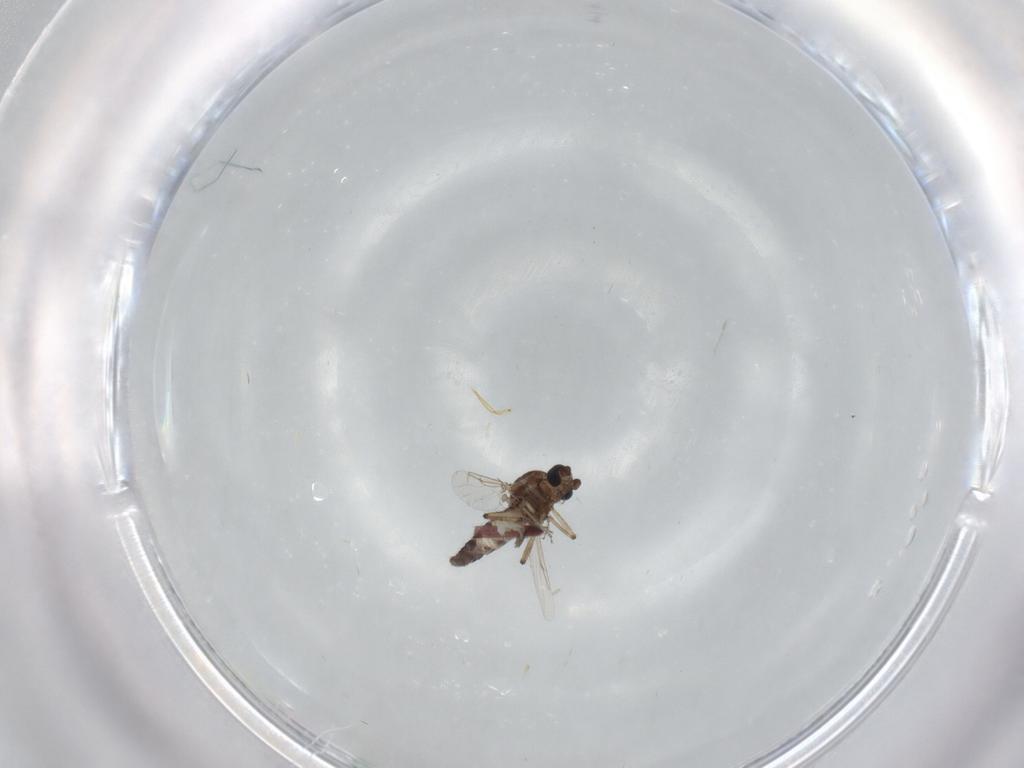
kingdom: Animalia
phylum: Arthropoda
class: Insecta
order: Diptera
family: Ceratopogonidae
